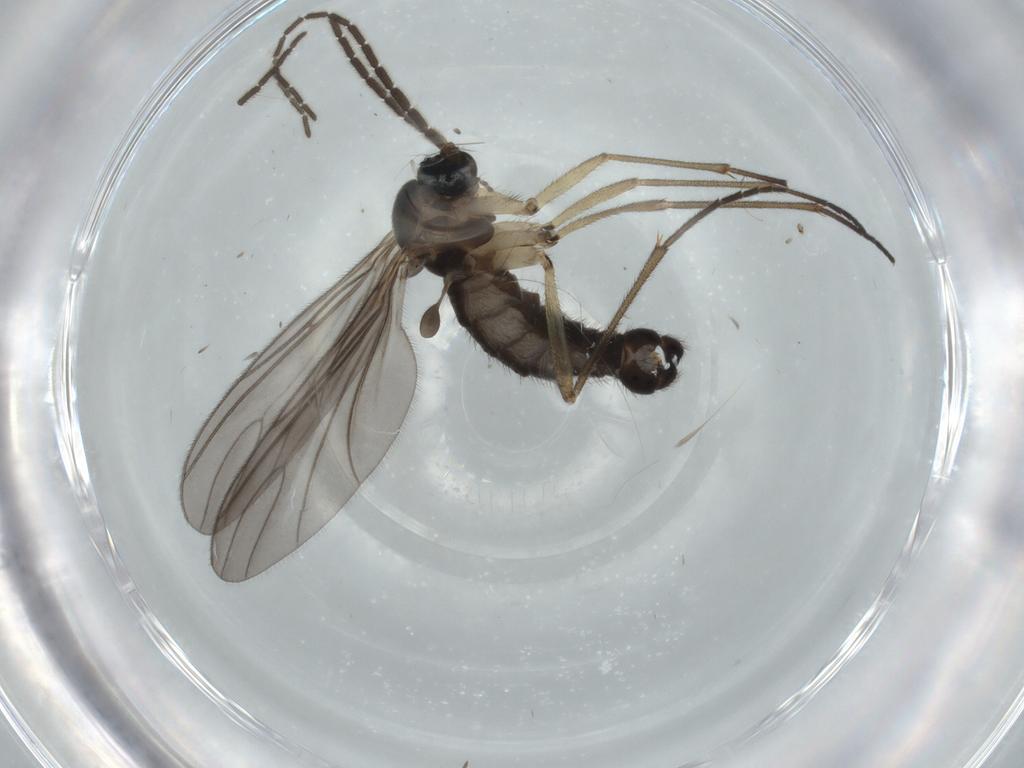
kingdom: Animalia
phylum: Arthropoda
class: Insecta
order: Diptera
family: Sciaridae
